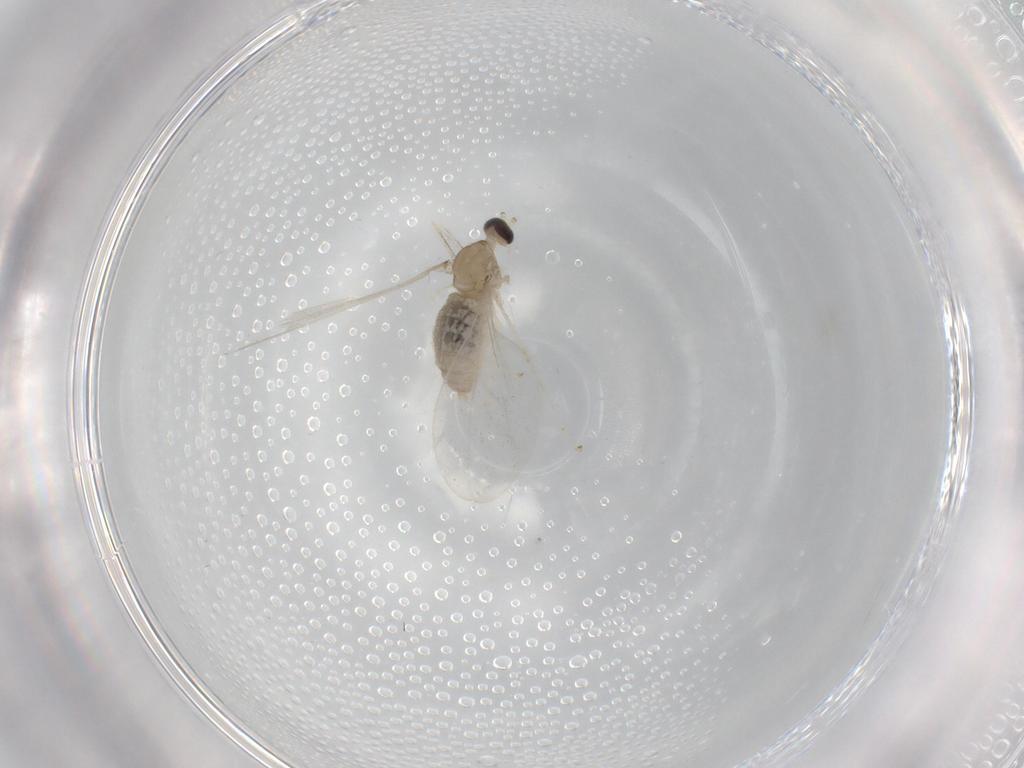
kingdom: Animalia
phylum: Arthropoda
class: Insecta
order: Diptera
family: Cecidomyiidae
